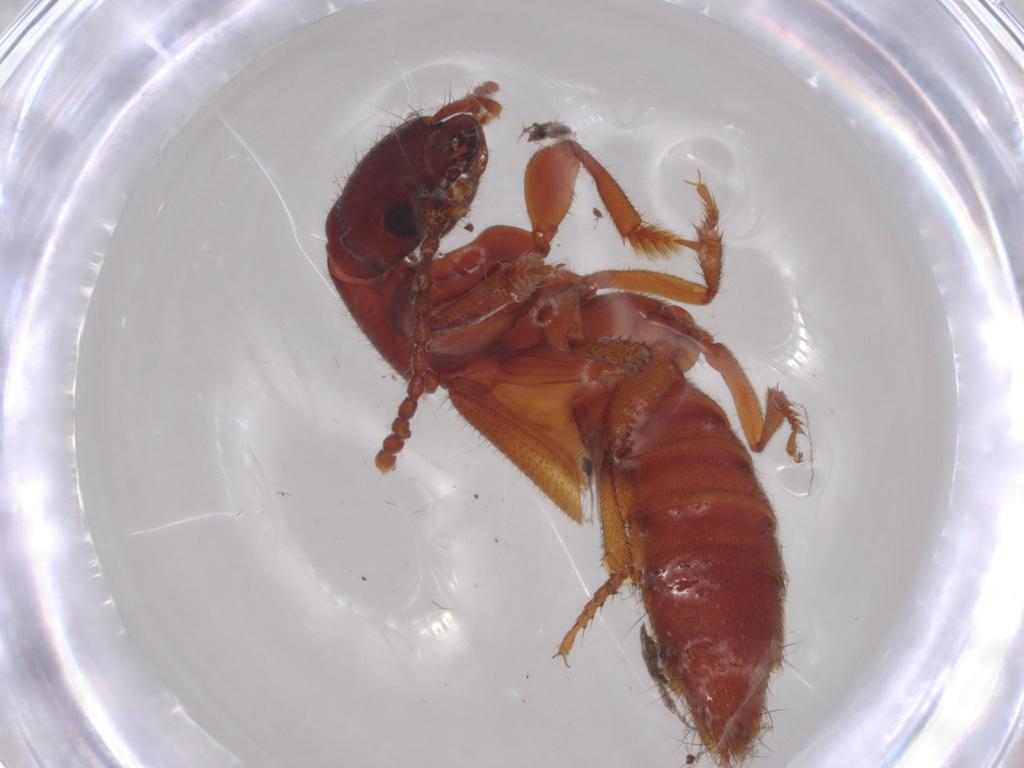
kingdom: Animalia
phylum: Arthropoda
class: Insecta
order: Coleoptera
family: Staphylinidae
